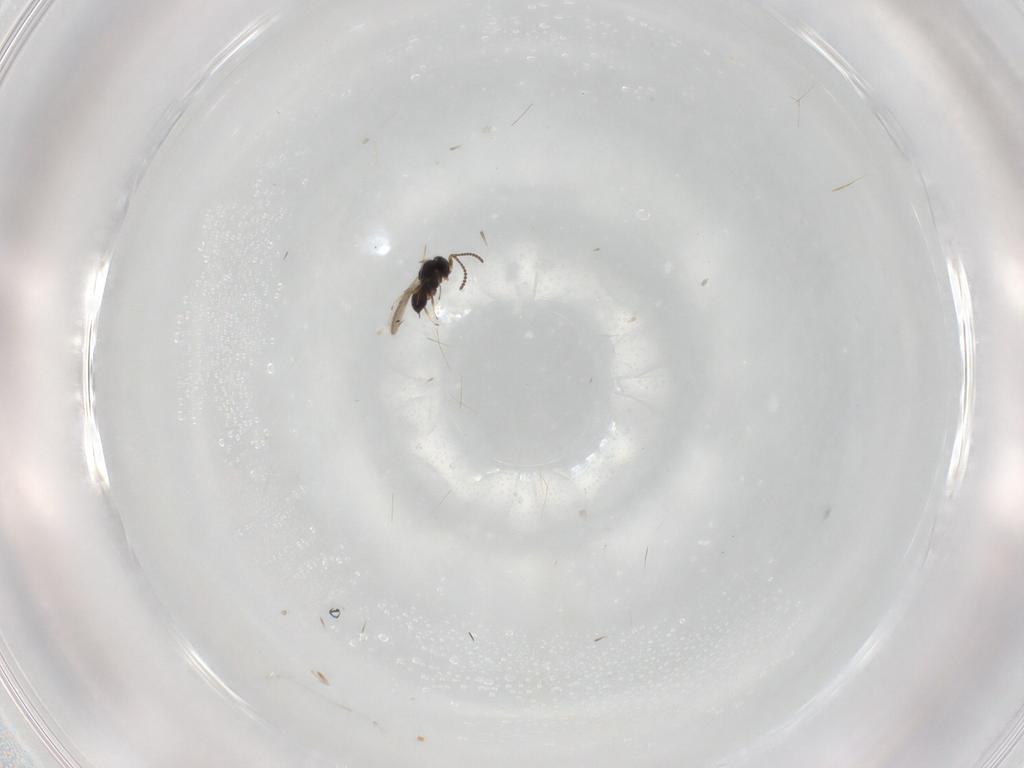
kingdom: Animalia
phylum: Arthropoda
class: Insecta
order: Hymenoptera
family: Scelionidae
